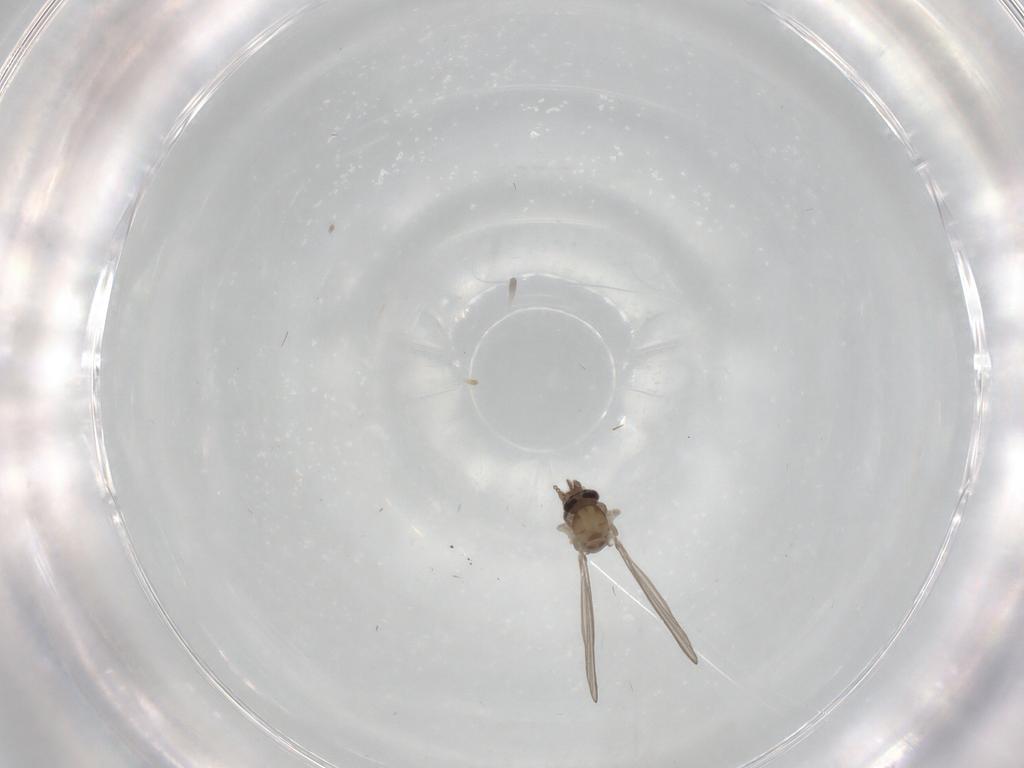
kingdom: Animalia
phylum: Arthropoda
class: Insecta
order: Diptera
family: Psychodidae
